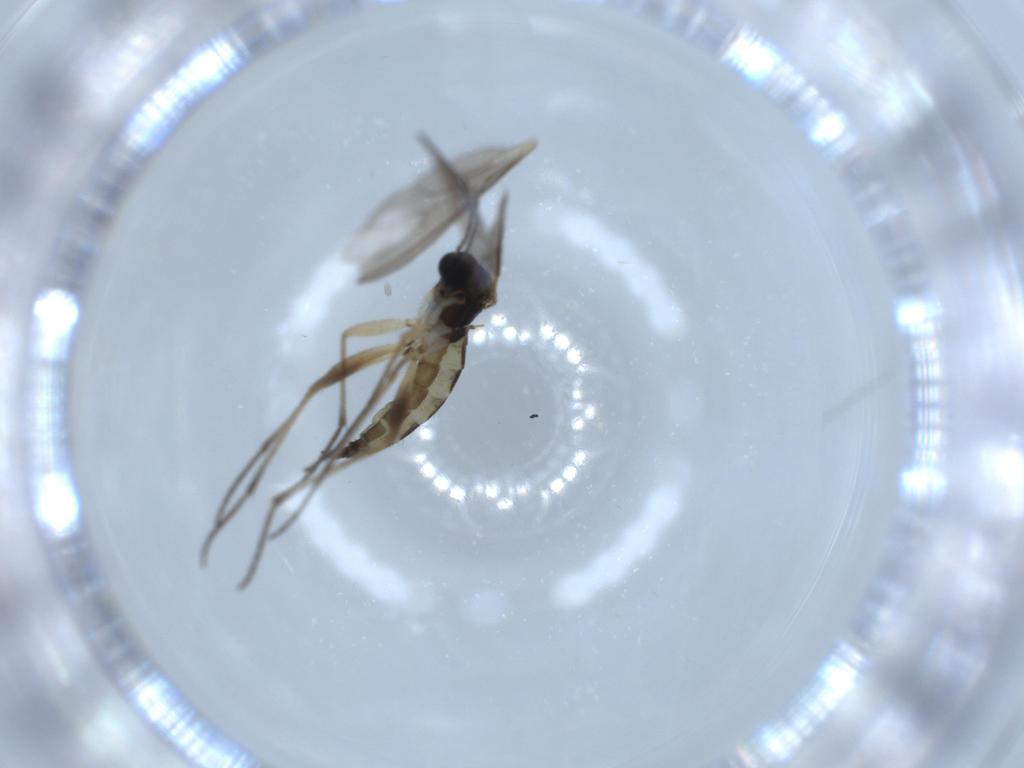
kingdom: Animalia
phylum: Arthropoda
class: Insecta
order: Diptera
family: Sciaridae
